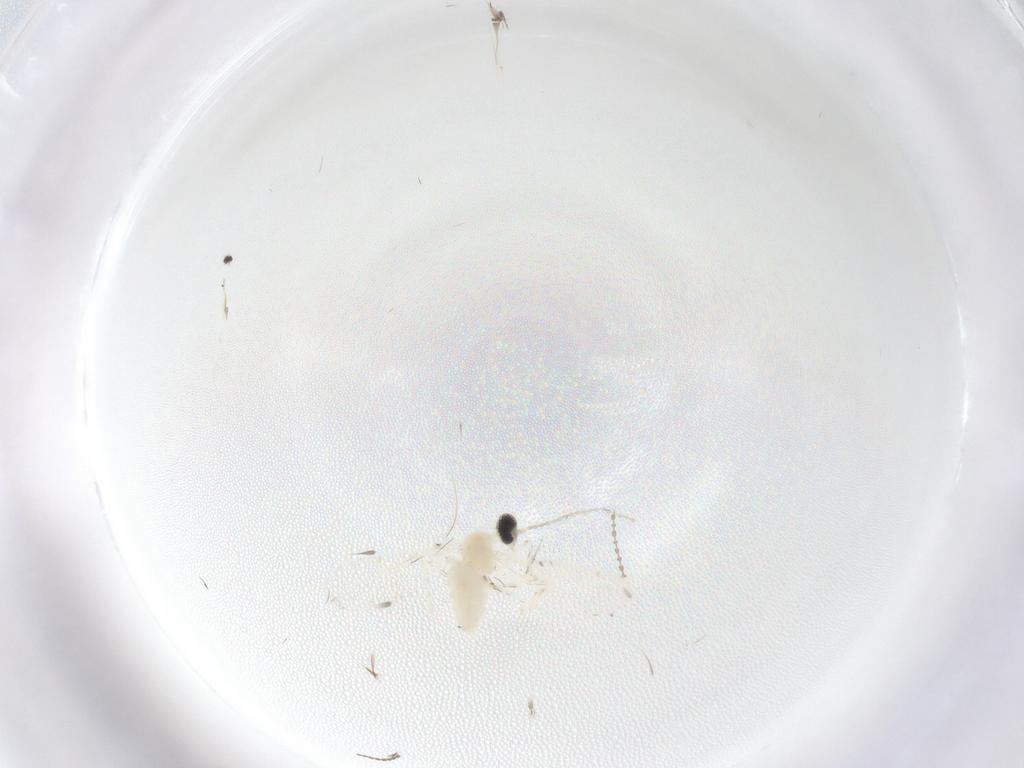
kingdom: Animalia
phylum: Arthropoda
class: Insecta
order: Diptera
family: Cecidomyiidae
